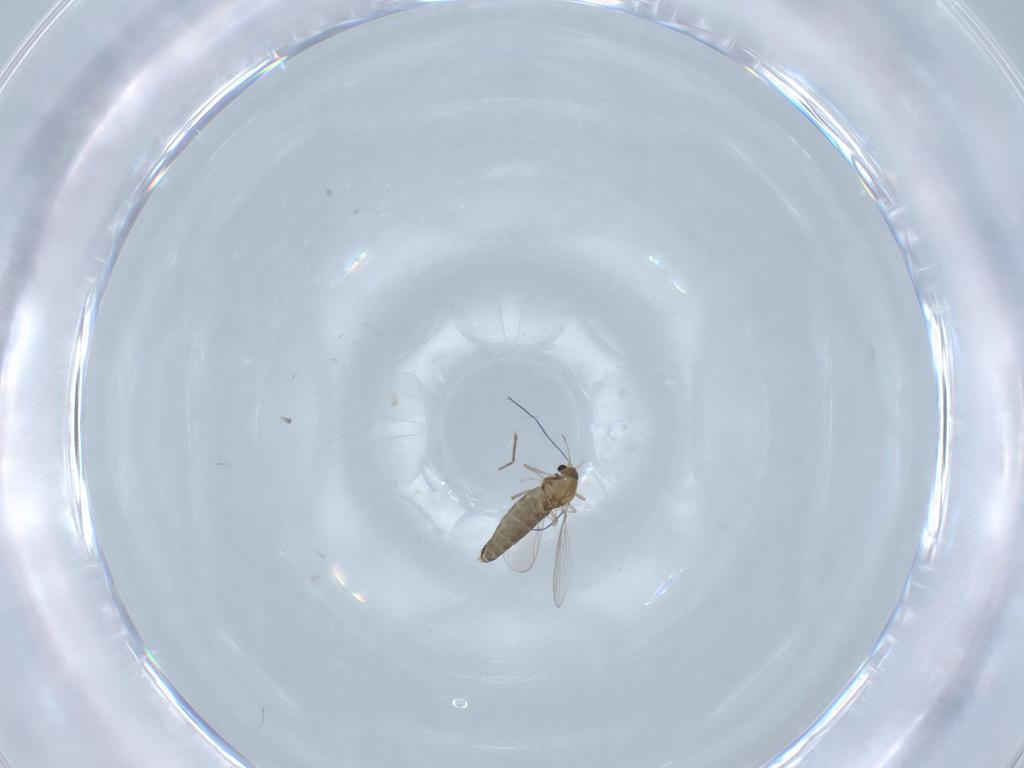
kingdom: Animalia
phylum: Arthropoda
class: Insecta
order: Diptera
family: Chironomidae
